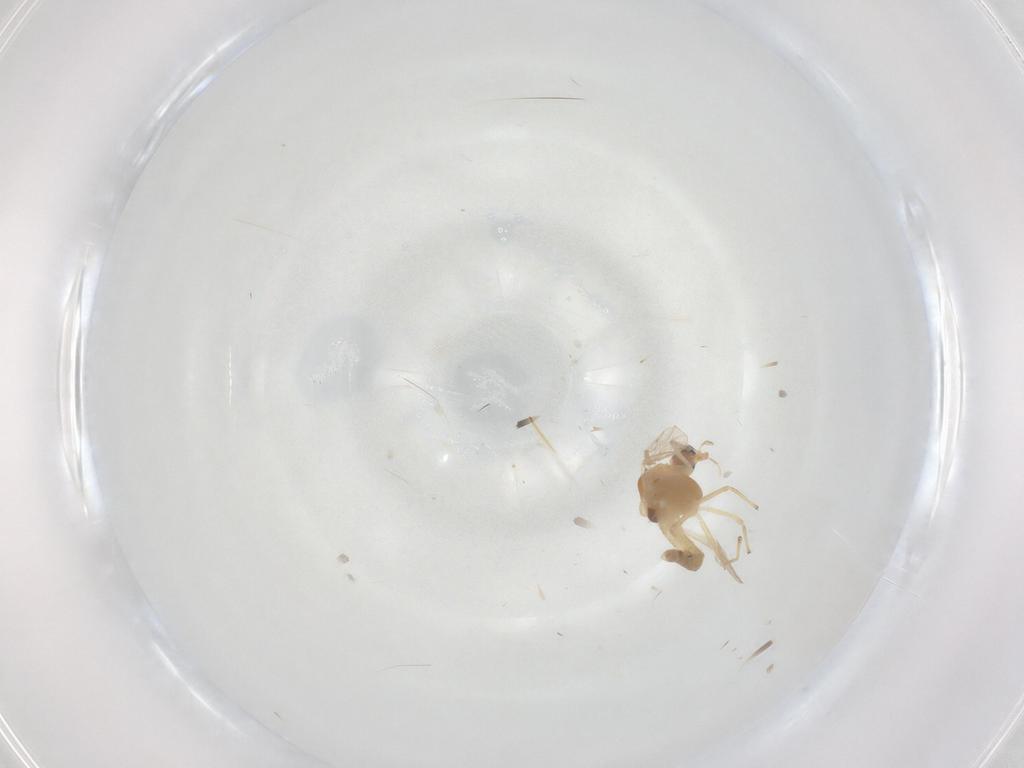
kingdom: Animalia
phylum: Arthropoda
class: Insecta
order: Diptera
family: Chironomidae
